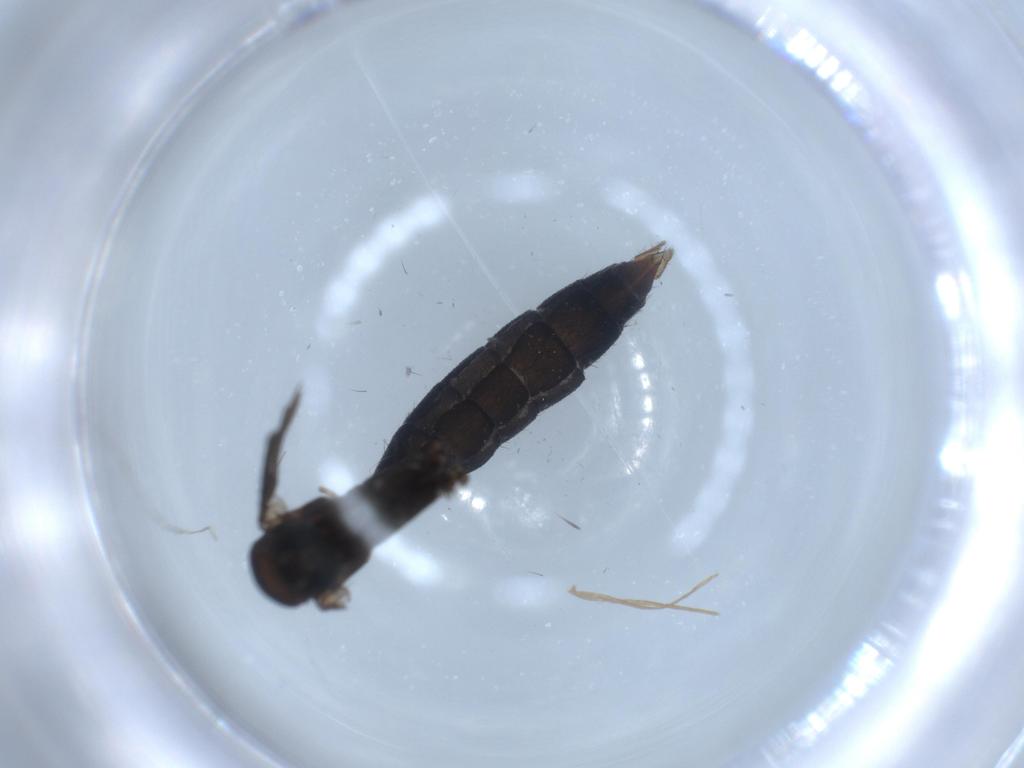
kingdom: Animalia
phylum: Arthropoda
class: Insecta
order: Diptera
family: Ditomyiidae
